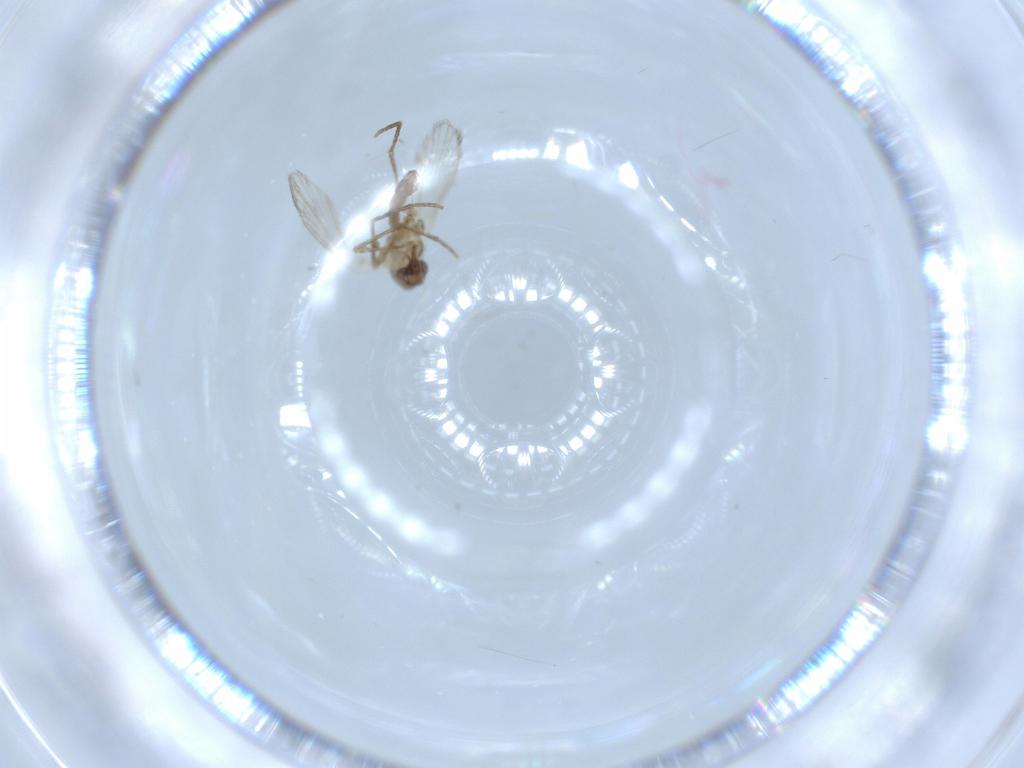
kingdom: Animalia
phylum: Arthropoda
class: Insecta
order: Diptera
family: Psychodidae
